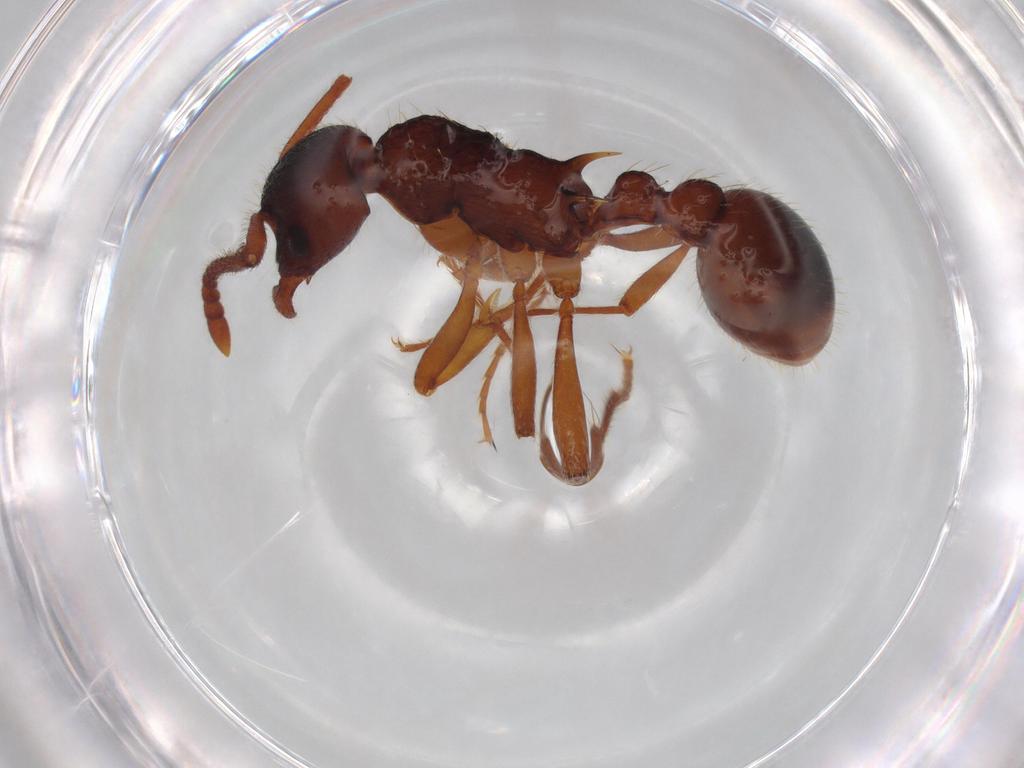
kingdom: Animalia
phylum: Arthropoda
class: Insecta
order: Hymenoptera
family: Formicidae
